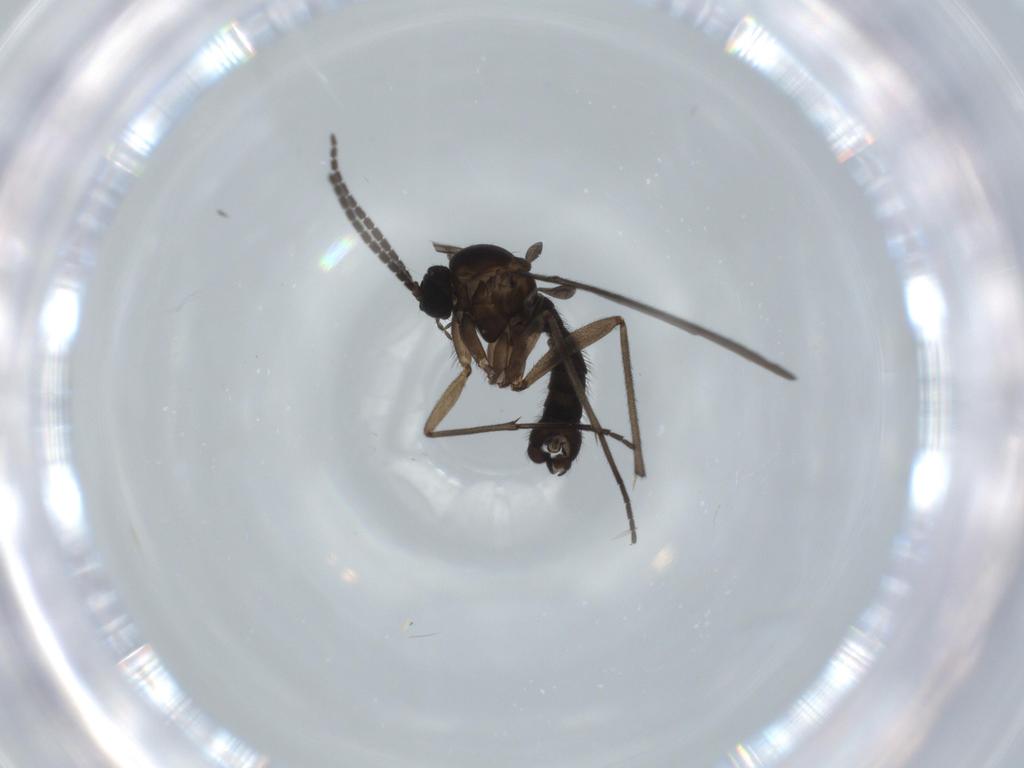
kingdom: Animalia
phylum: Arthropoda
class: Insecta
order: Diptera
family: Sciaridae
